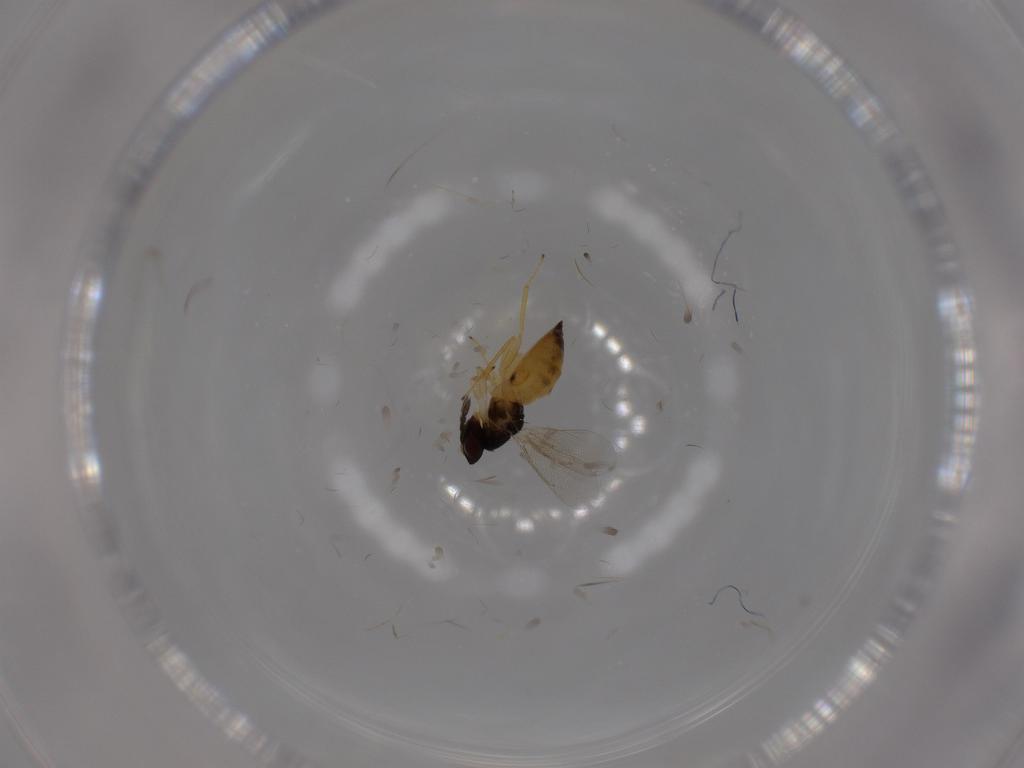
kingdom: Animalia
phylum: Arthropoda
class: Insecta
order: Hymenoptera
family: Eulophidae
